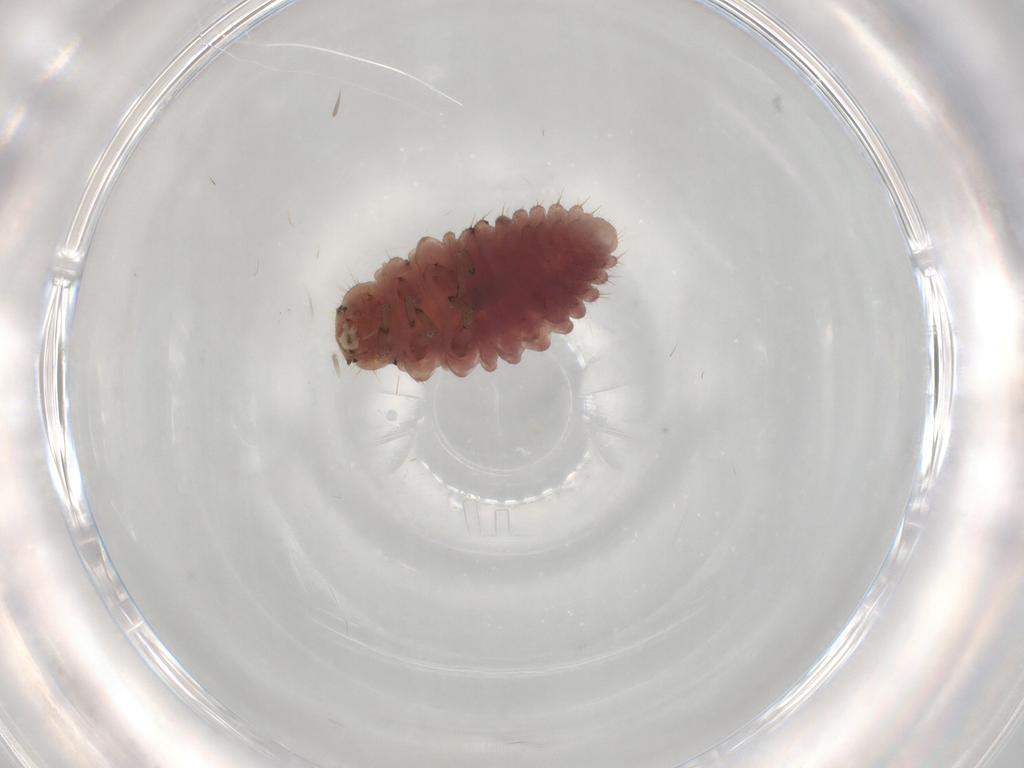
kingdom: Animalia
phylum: Arthropoda
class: Insecta
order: Coleoptera
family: Coccinellidae
